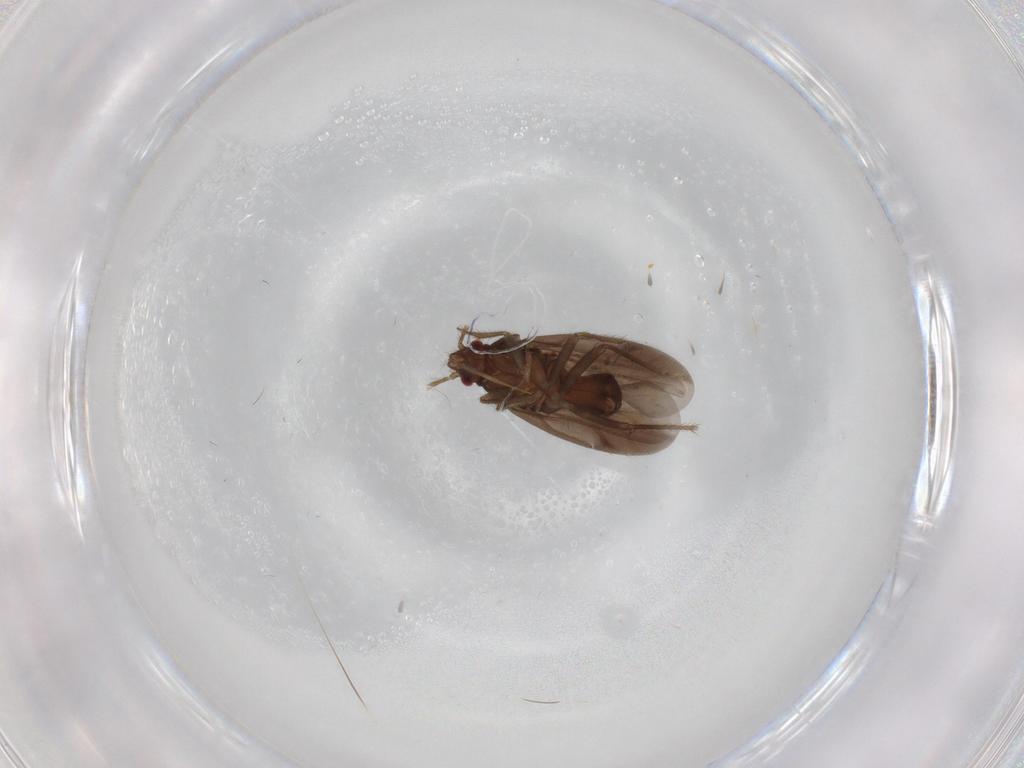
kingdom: Animalia
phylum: Arthropoda
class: Insecta
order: Hemiptera
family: Ceratocombidae
